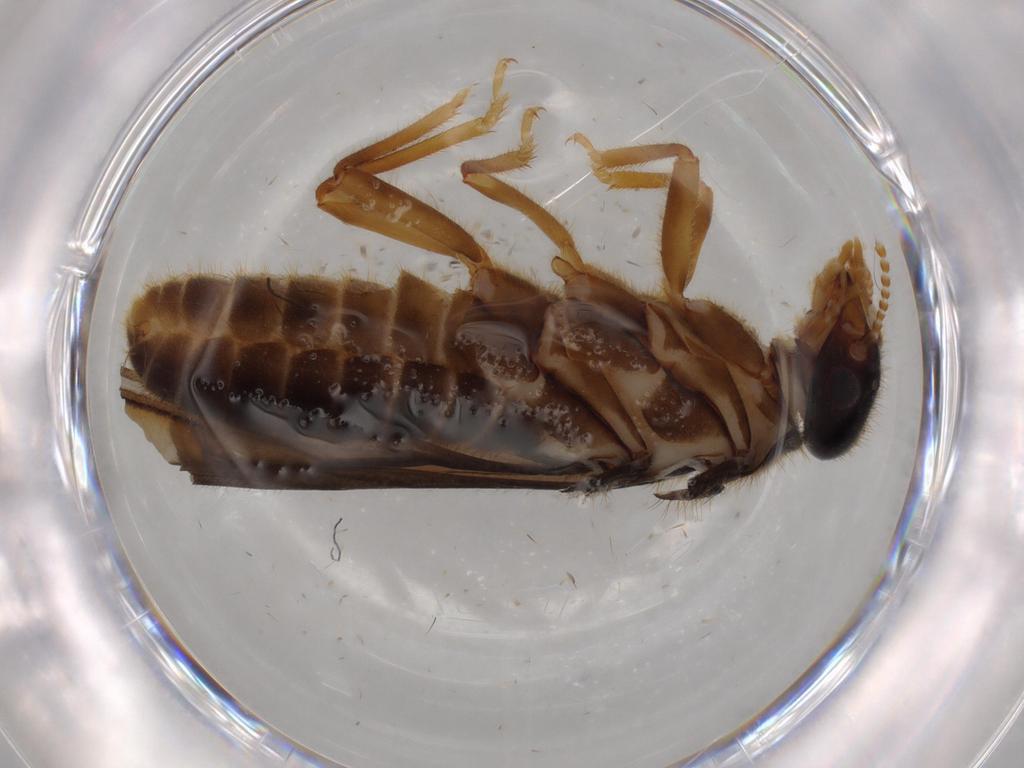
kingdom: Animalia
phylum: Arthropoda
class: Insecta
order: Blattodea
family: Termitidae
